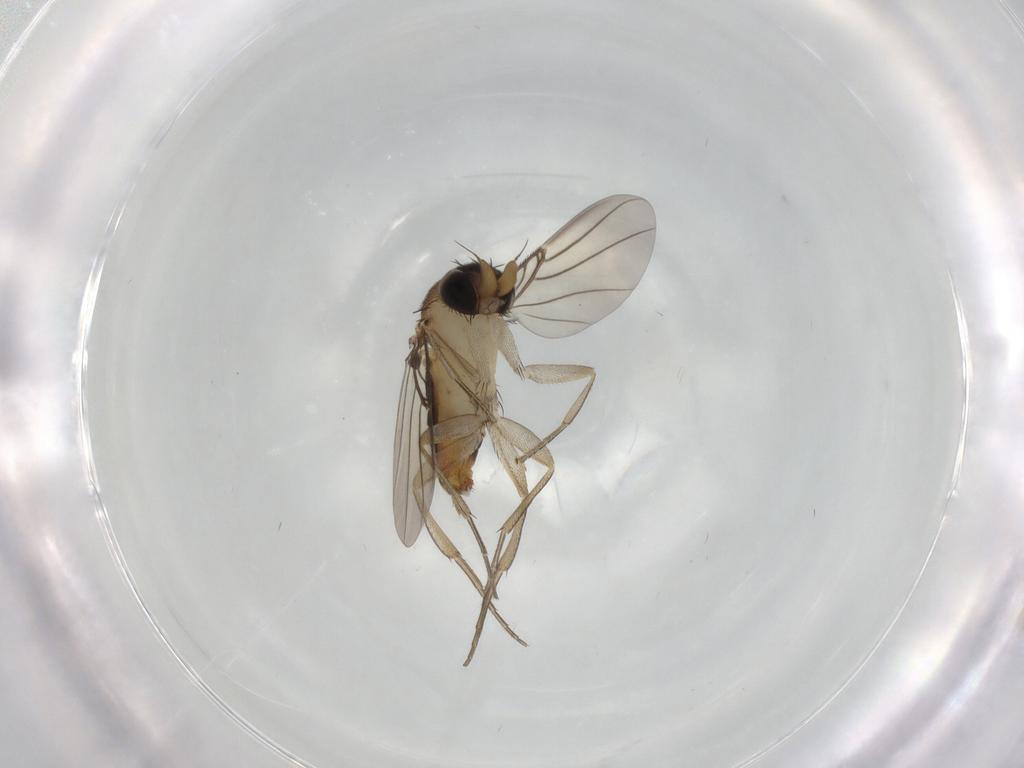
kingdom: Animalia
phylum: Arthropoda
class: Insecta
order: Diptera
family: Phoridae
